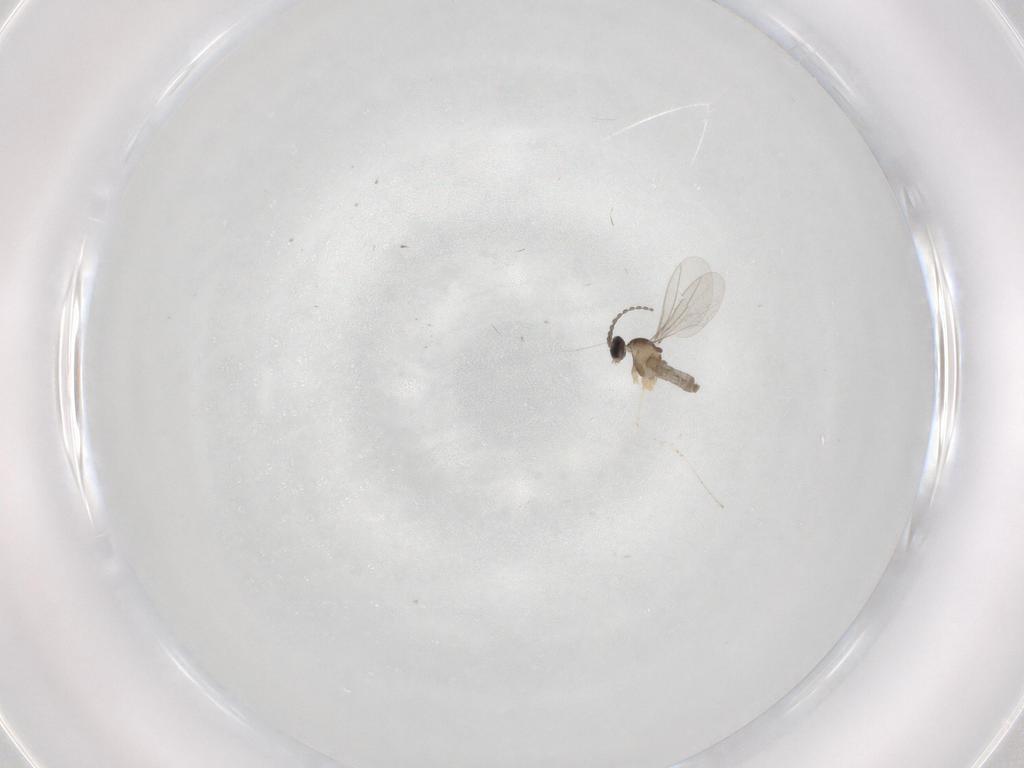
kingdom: Animalia
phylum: Arthropoda
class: Insecta
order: Diptera
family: Cecidomyiidae
